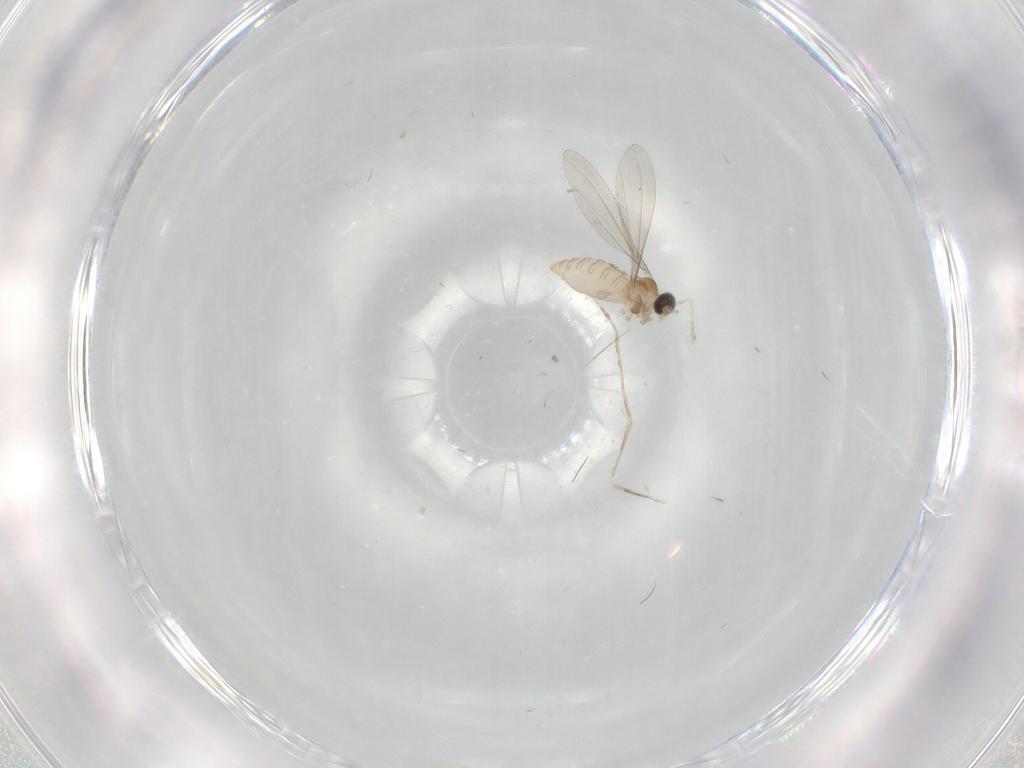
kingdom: Animalia
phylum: Arthropoda
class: Insecta
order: Diptera
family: Cecidomyiidae
